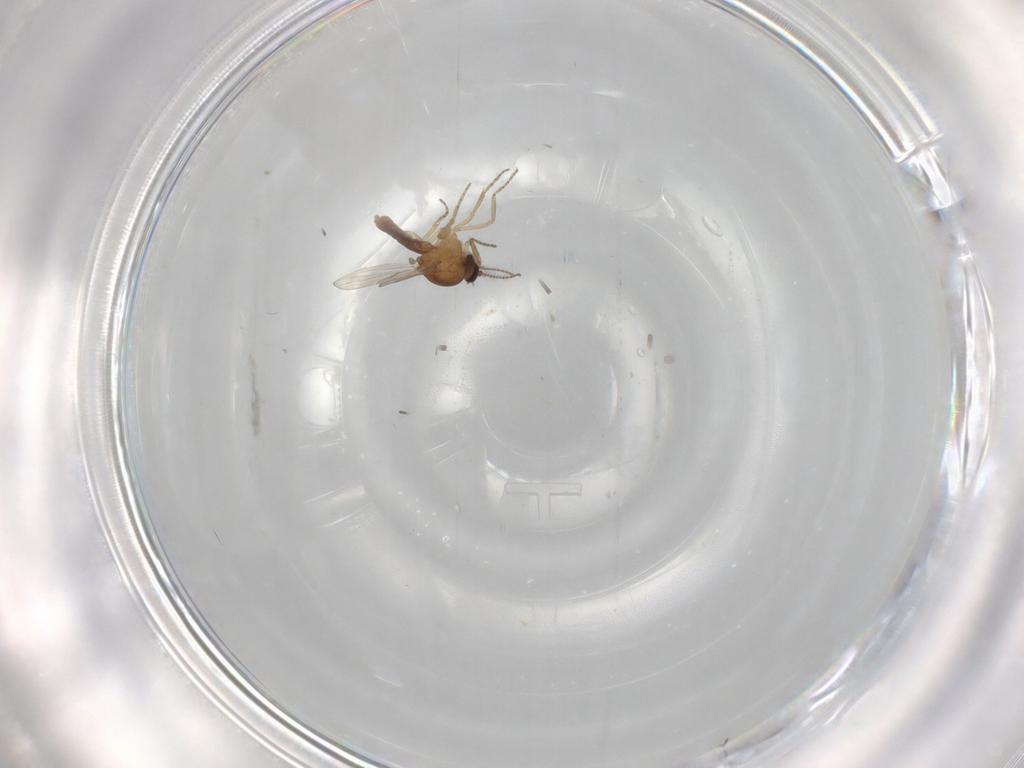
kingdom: Animalia
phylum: Arthropoda
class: Insecta
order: Diptera
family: Ceratopogonidae
